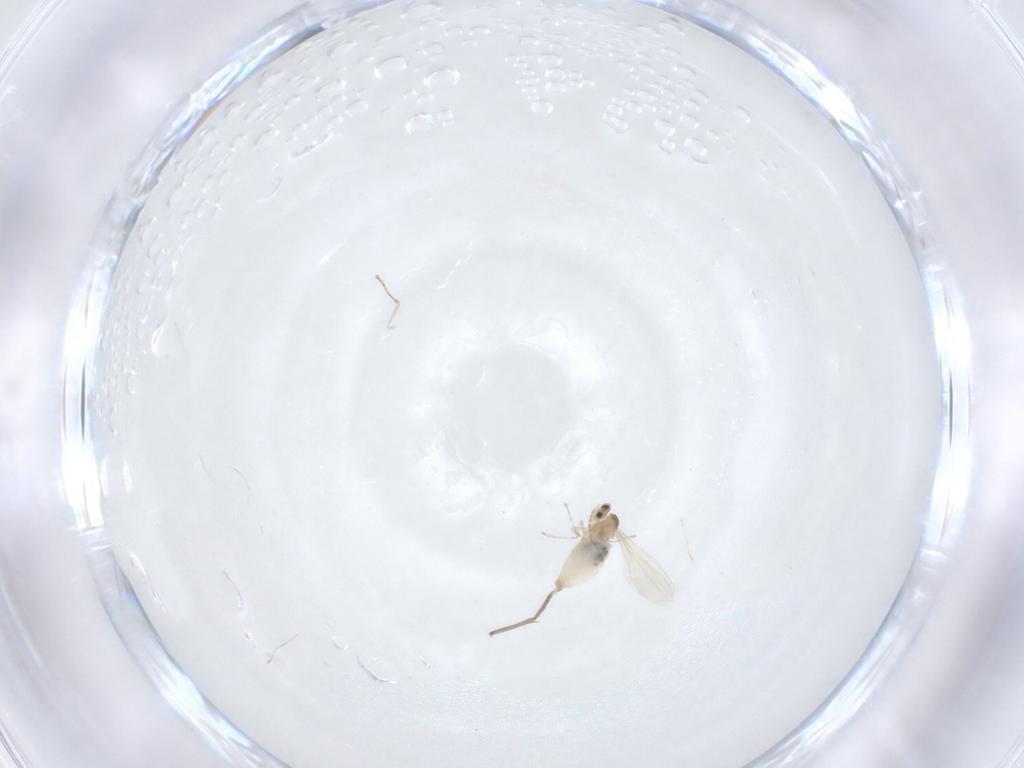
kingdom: Animalia
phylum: Arthropoda
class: Insecta
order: Diptera
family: Cecidomyiidae
